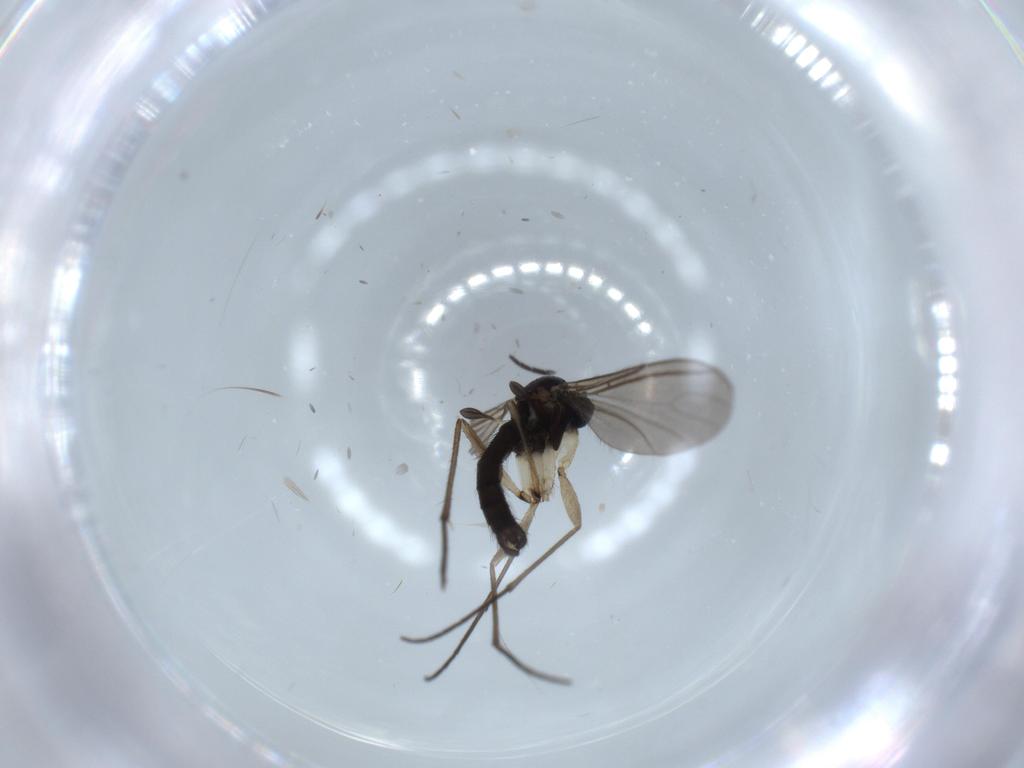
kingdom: Animalia
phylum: Arthropoda
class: Insecta
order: Diptera
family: Sciaridae
